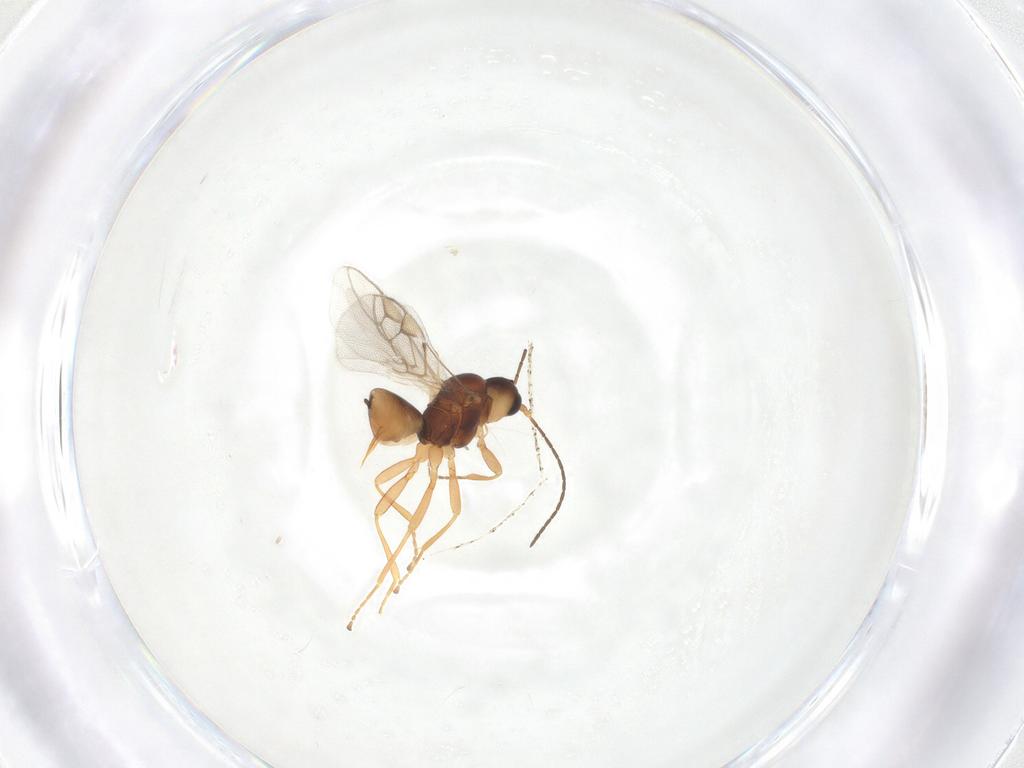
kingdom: Animalia
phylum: Arthropoda
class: Insecta
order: Hymenoptera
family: Braconidae
